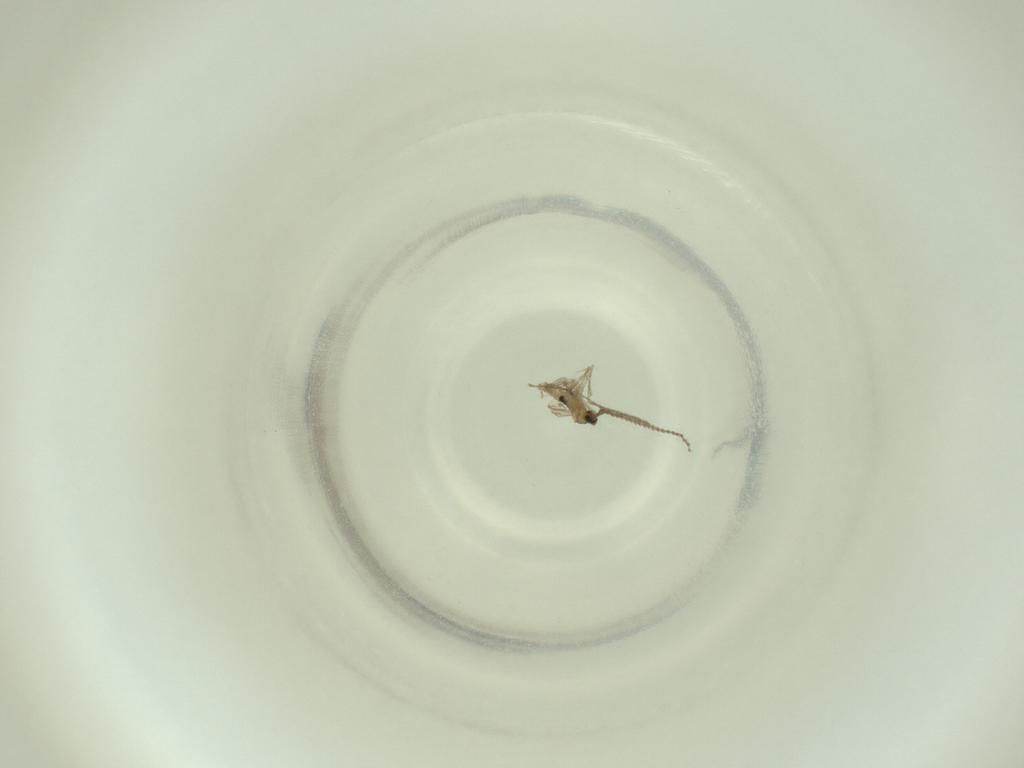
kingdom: Animalia
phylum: Arthropoda
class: Insecta
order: Diptera
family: Cecidomyiidae
